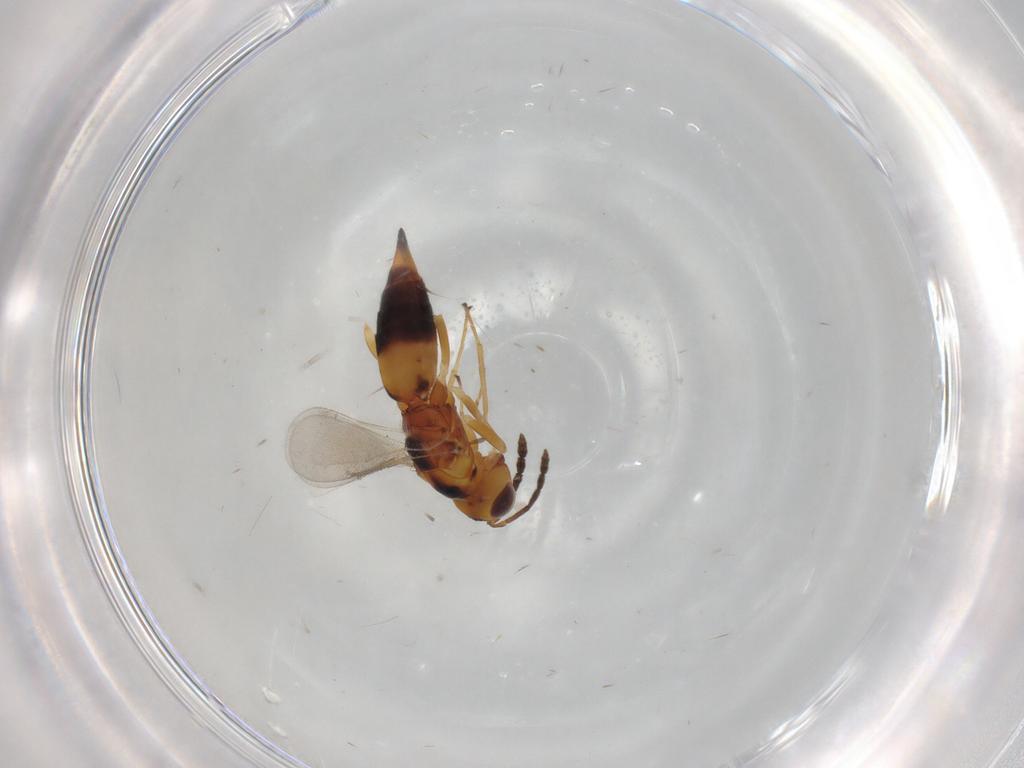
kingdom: Animalia
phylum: Arthropoda
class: Insecta
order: Hymenoptera
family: Eulophidae
